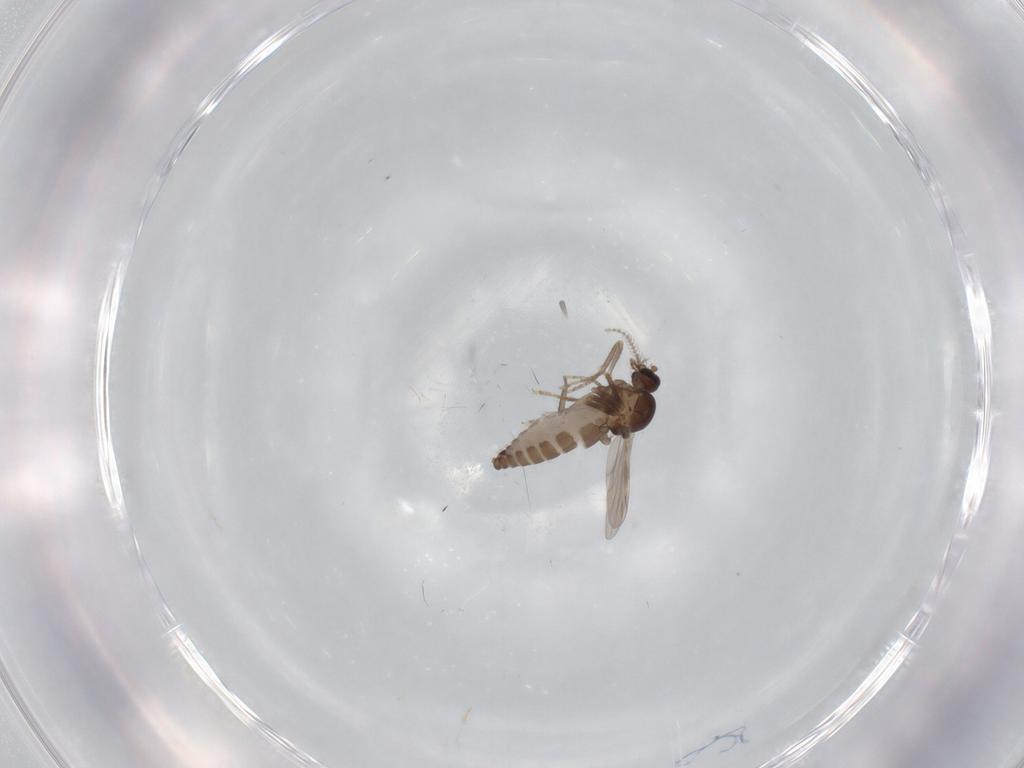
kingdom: Animalia
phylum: Arthropoda
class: Insecta
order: Diptera
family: Ceratopogonidae
